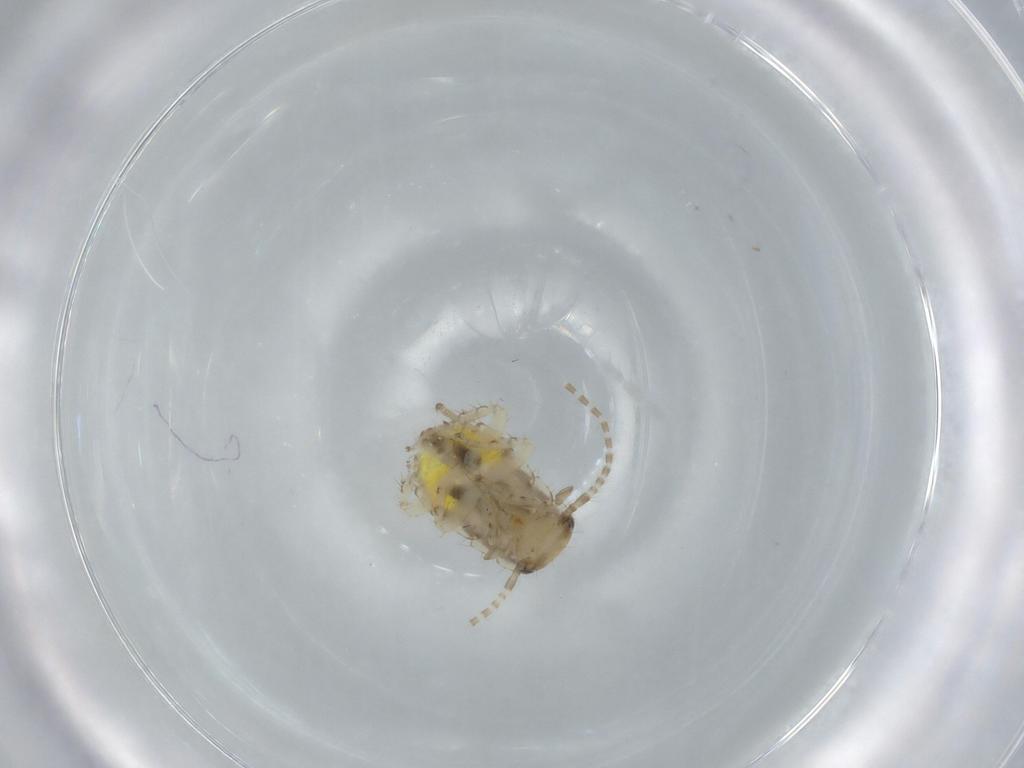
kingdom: Animalia
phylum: Arthropoda
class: Insecta
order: Blattodea
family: Ectobiidae
